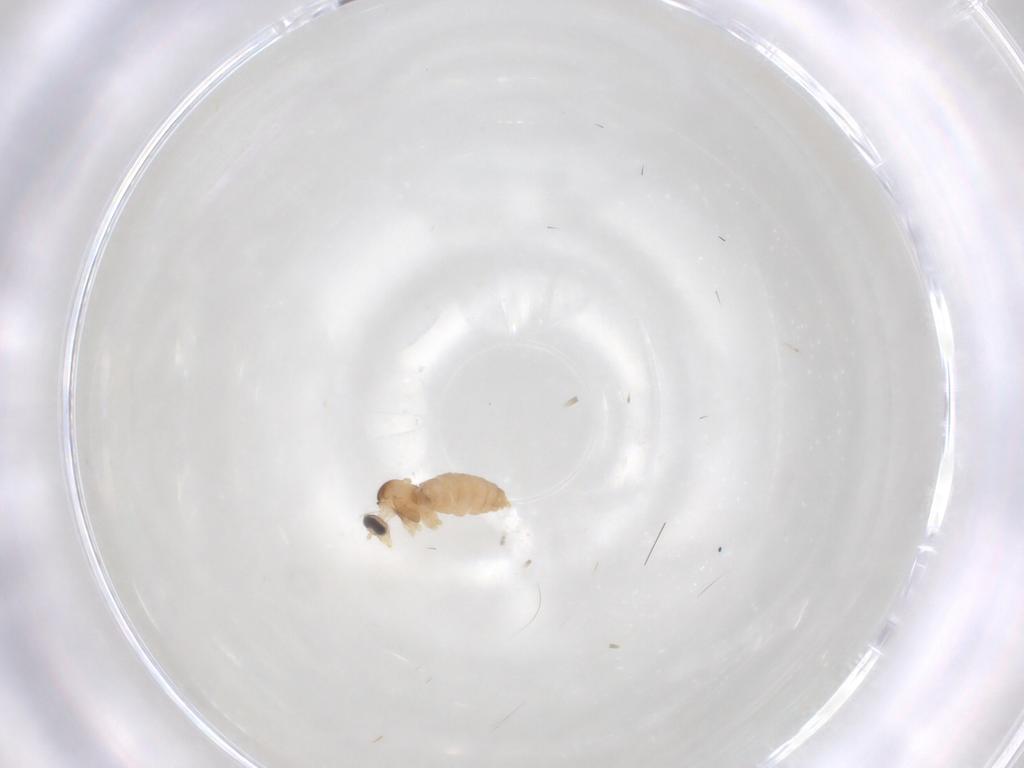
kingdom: Animalia
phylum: Arthropoda
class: Insecta
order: Diptera
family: Cecidomyiidae
